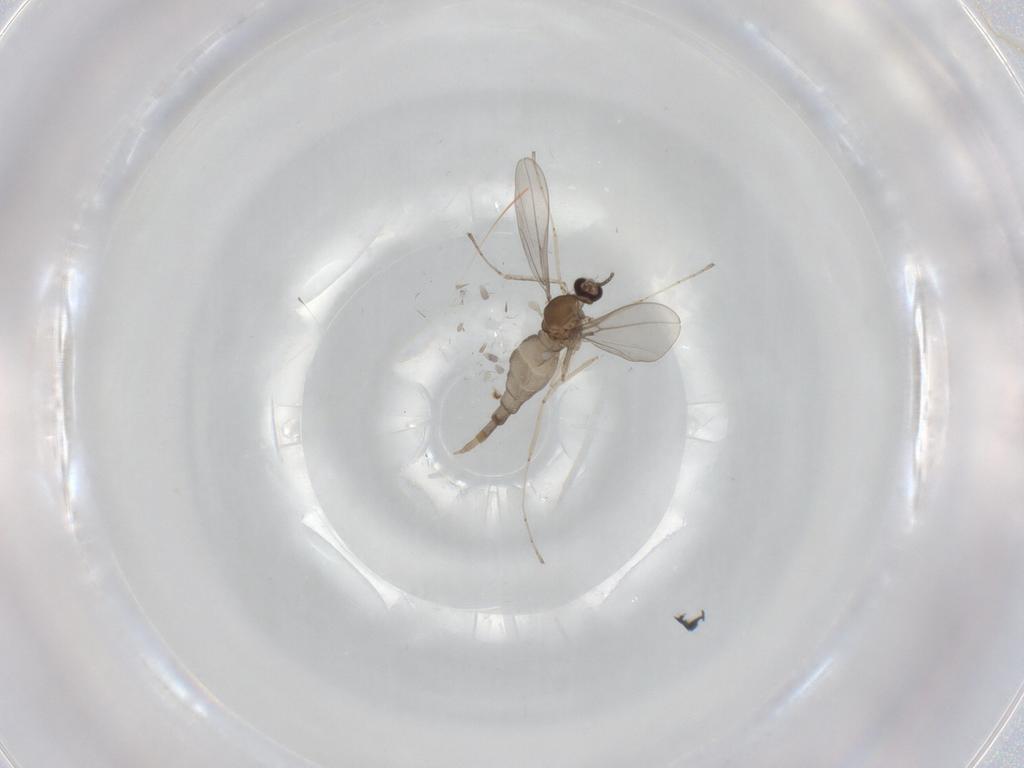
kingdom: Animalia
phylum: Arthropoda
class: Insecta
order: Diptera
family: Cecidomyiidae
